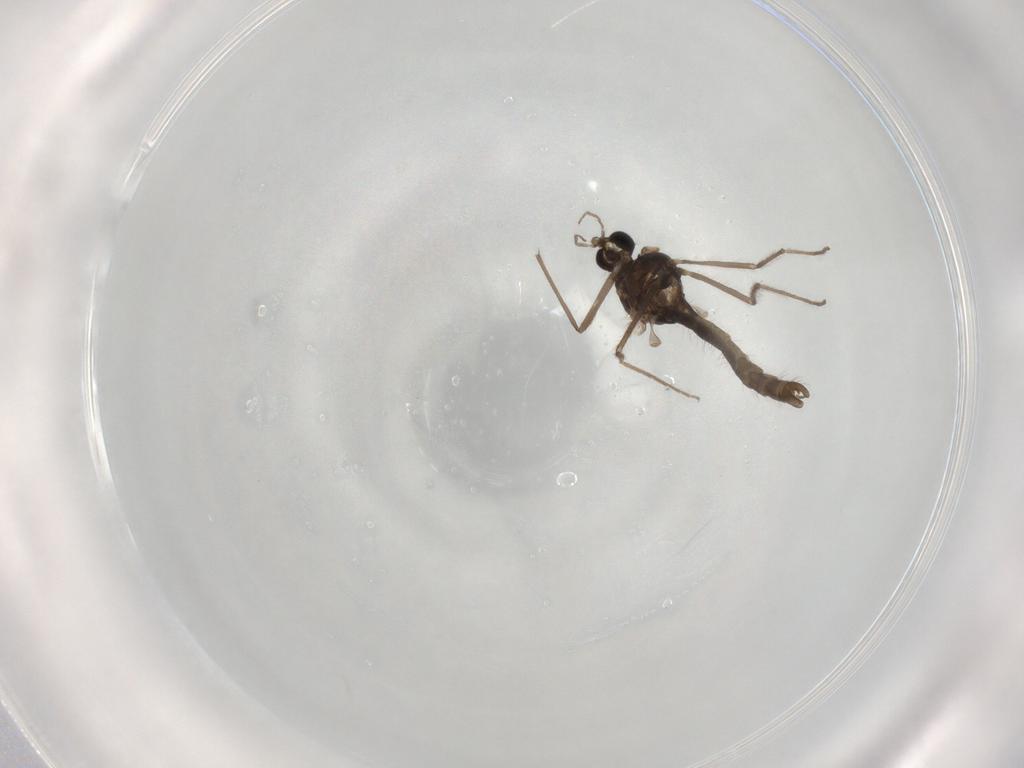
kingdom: Animalia
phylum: Arthropoda
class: Insecta
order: Diptera
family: Chironomidae
